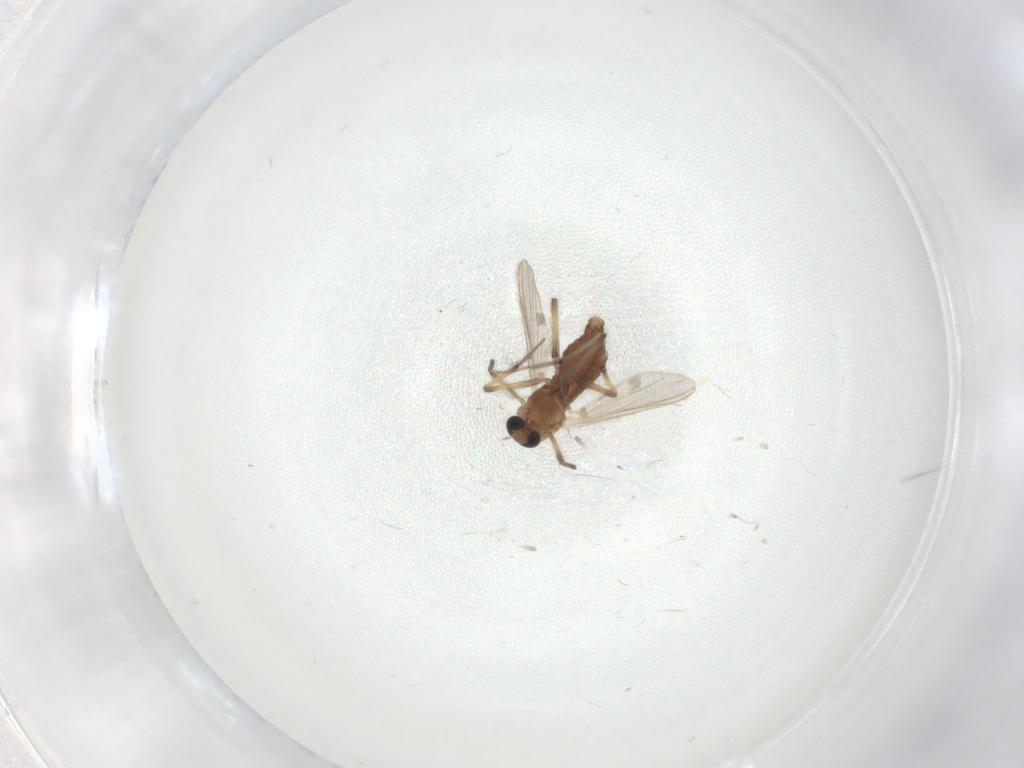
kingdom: Animalia
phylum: Arthropoda
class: Insecta
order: Diptera
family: Chironomidae
